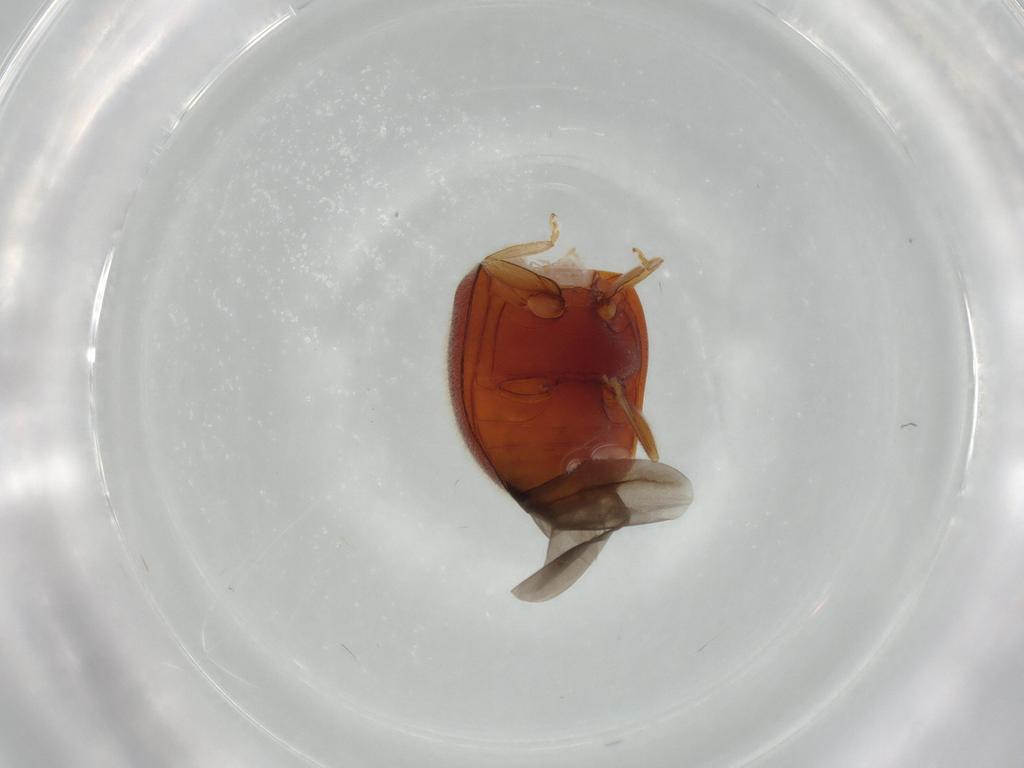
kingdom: Animalia
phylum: Arthropoda
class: Insecta
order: Coleoptera
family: Coccinellidae
